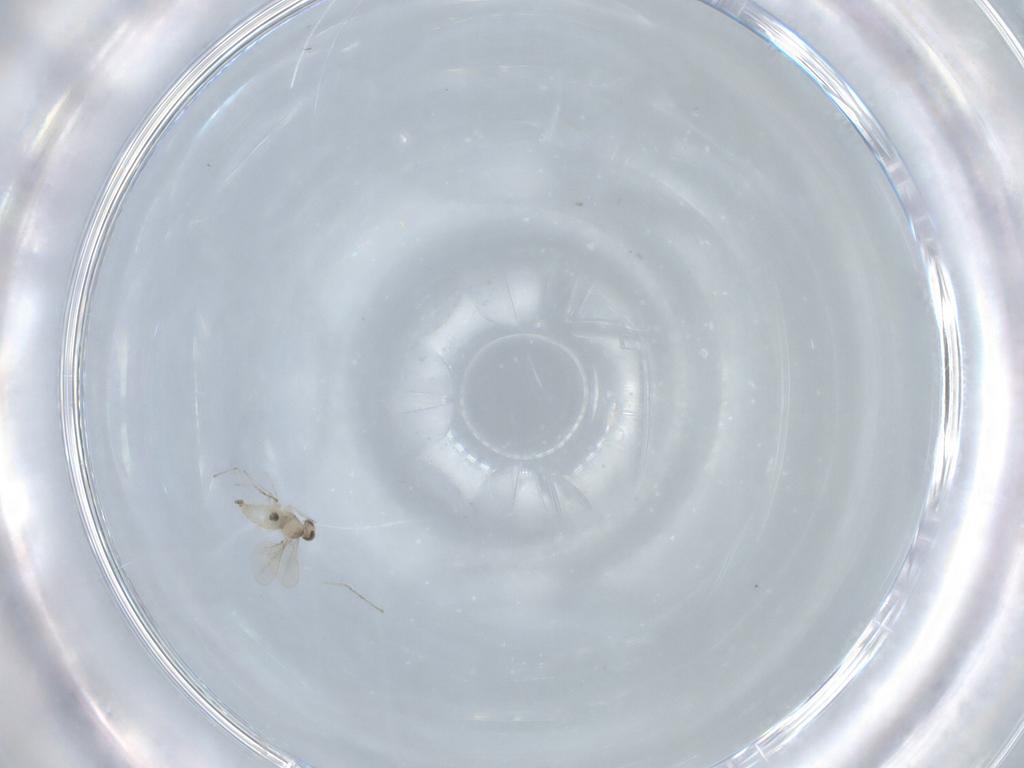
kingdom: Animalia
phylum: Arthropoda
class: Insecta
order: Diptera
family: Cecidomyiidae
